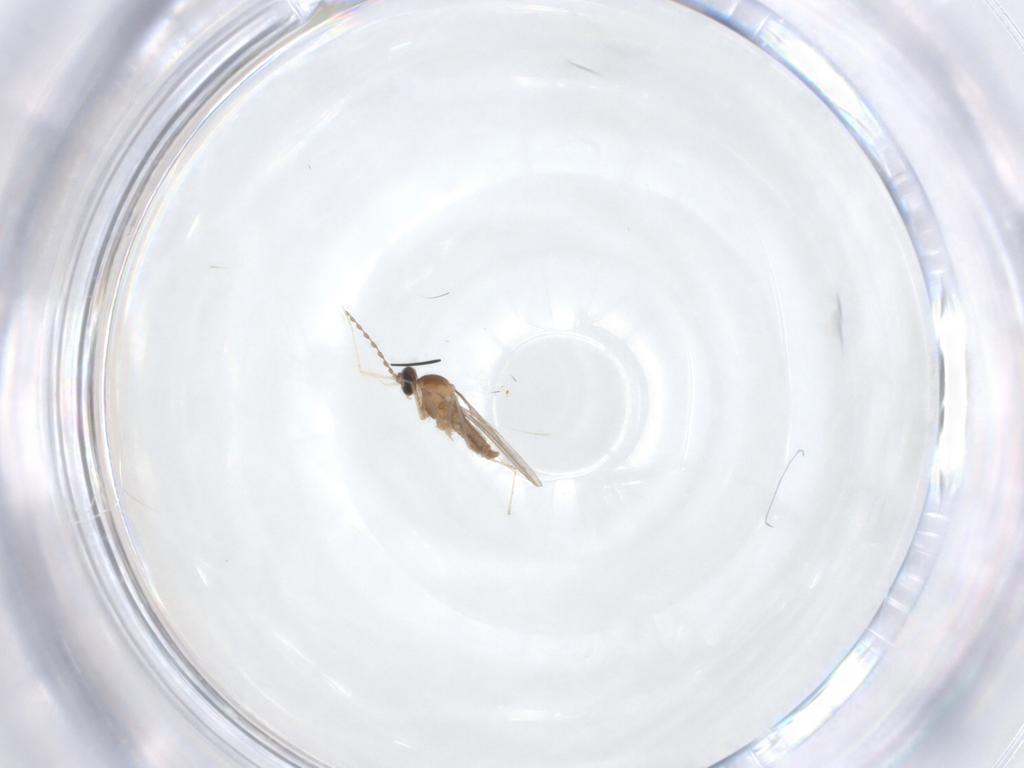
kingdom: Animalia
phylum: Arthropoda
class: Insecta
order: Diptera
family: Cecidomyiidae
